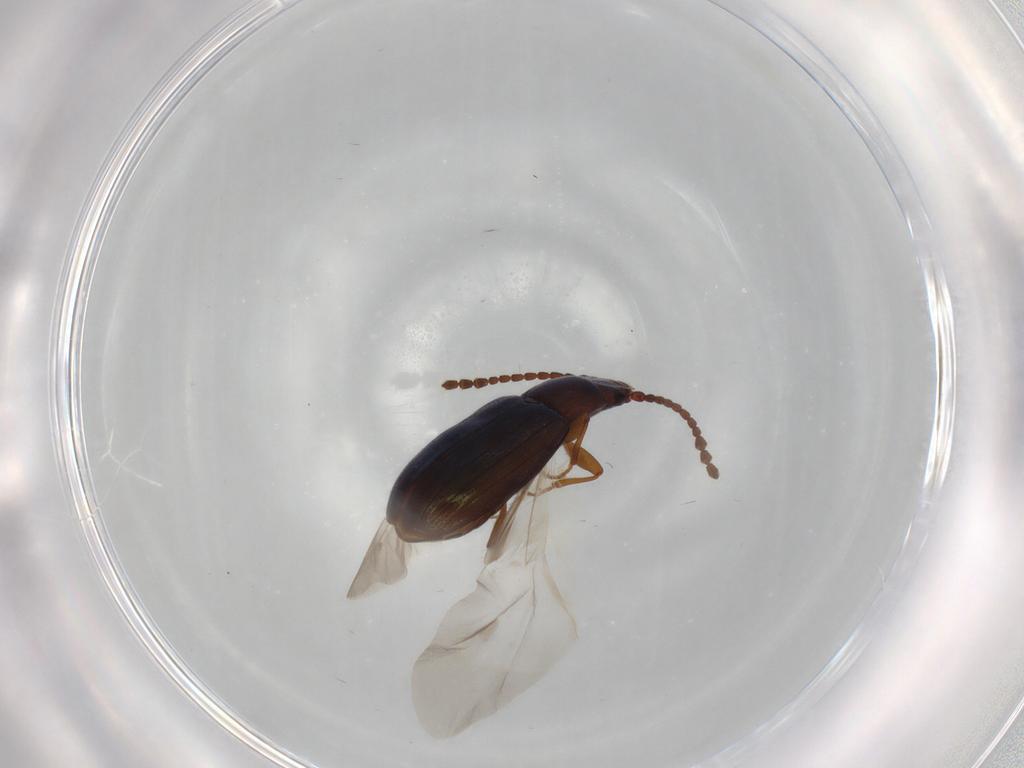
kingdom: Animalia
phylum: Arthropoda
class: Insecta
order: Coleoptera
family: Laemophloeidae
